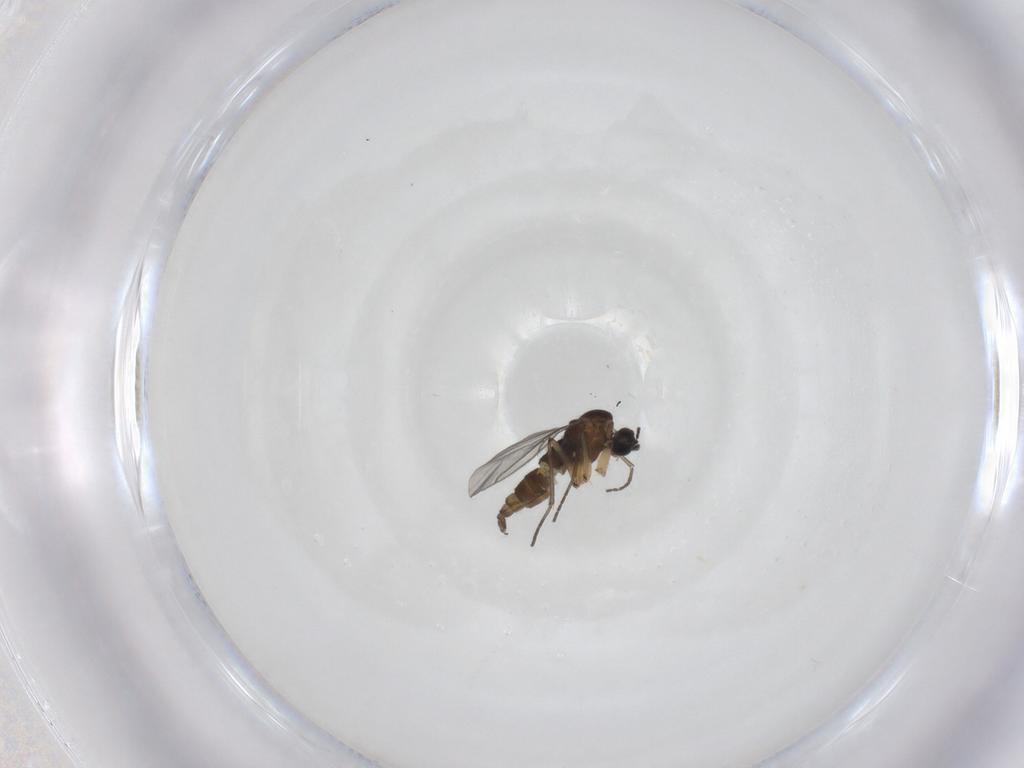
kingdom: Animalia
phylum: Arthropoda
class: Insecta
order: Diptera
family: Sciaridae
